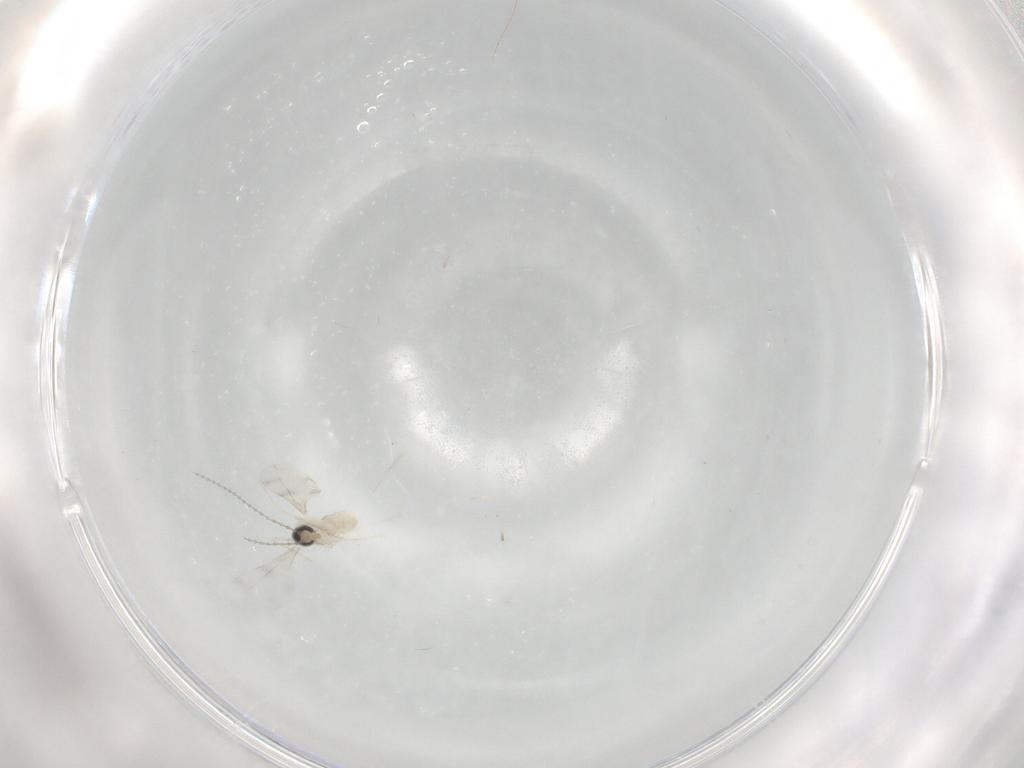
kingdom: Animalia
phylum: Arthropoda
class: Insecta
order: Diptera
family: Cecidomyiidae
